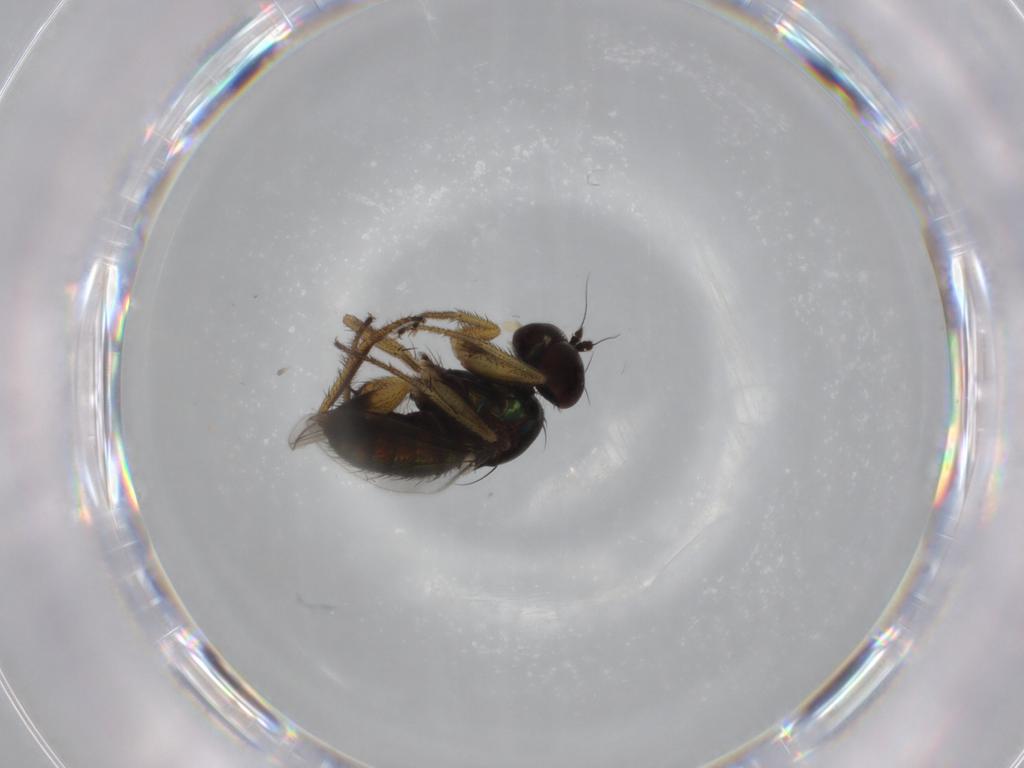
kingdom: Animalia
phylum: Arthropoda
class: Insecta
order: Diptera
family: Dolichopodidae
